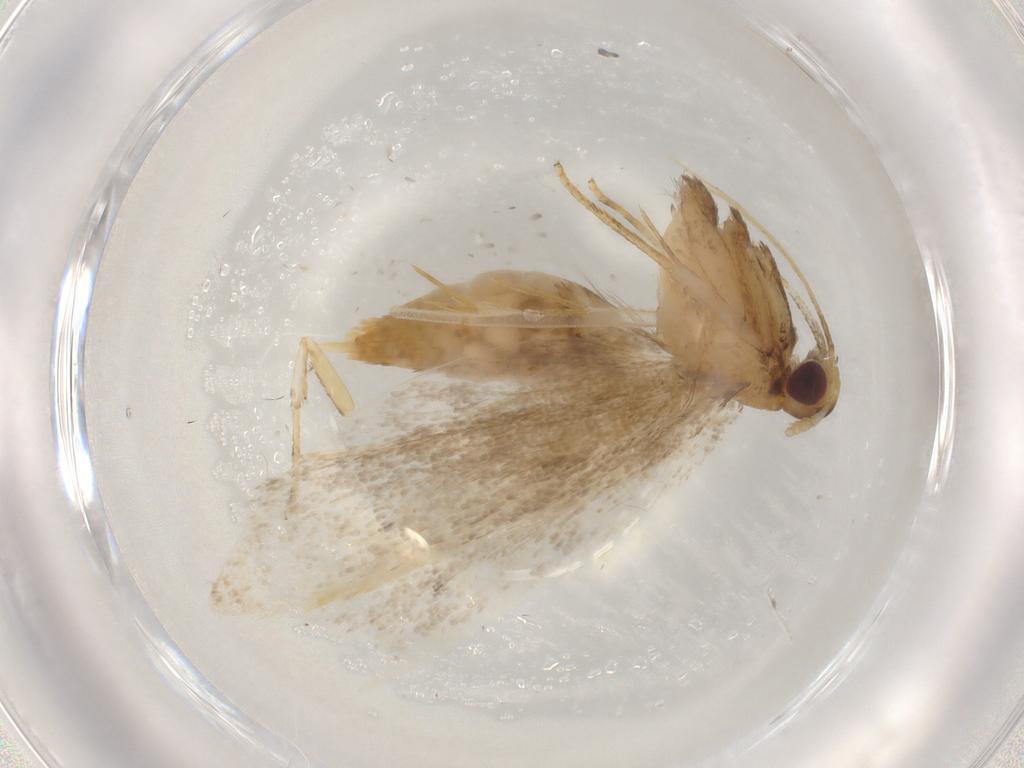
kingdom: Animalia
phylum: Arthropoda
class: Insecta
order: Lepidoptera
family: Lecithoceridae
